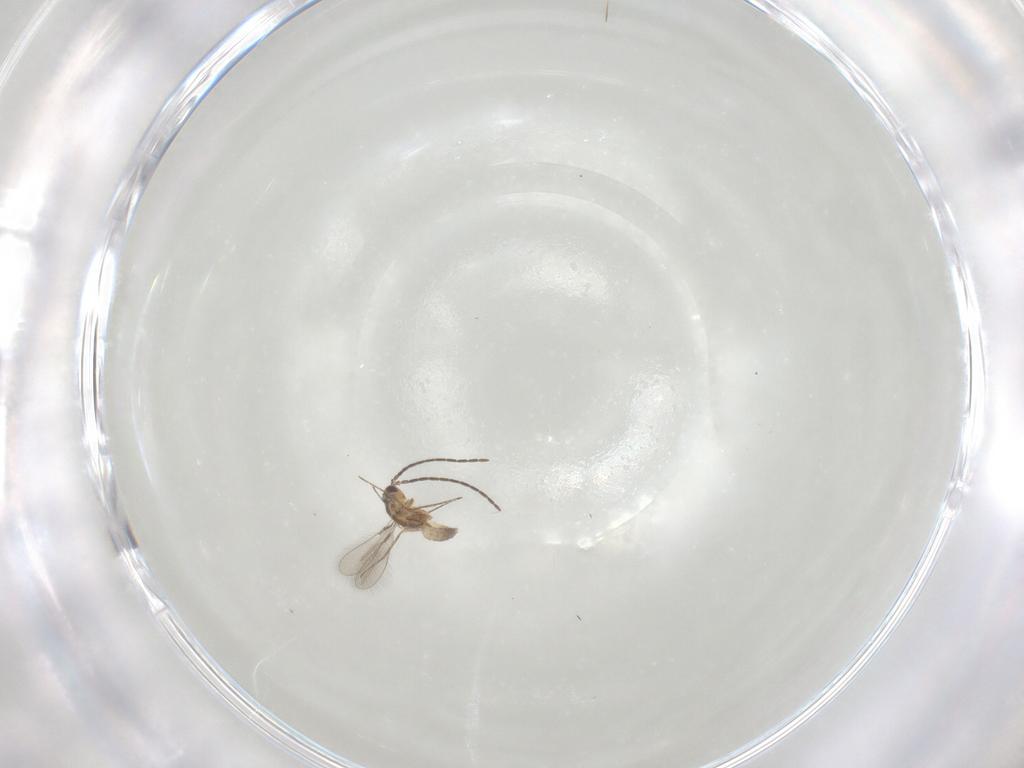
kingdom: Animalia
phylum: Arthropoda
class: Insecta
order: Hymenoptera
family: Mymaridae
